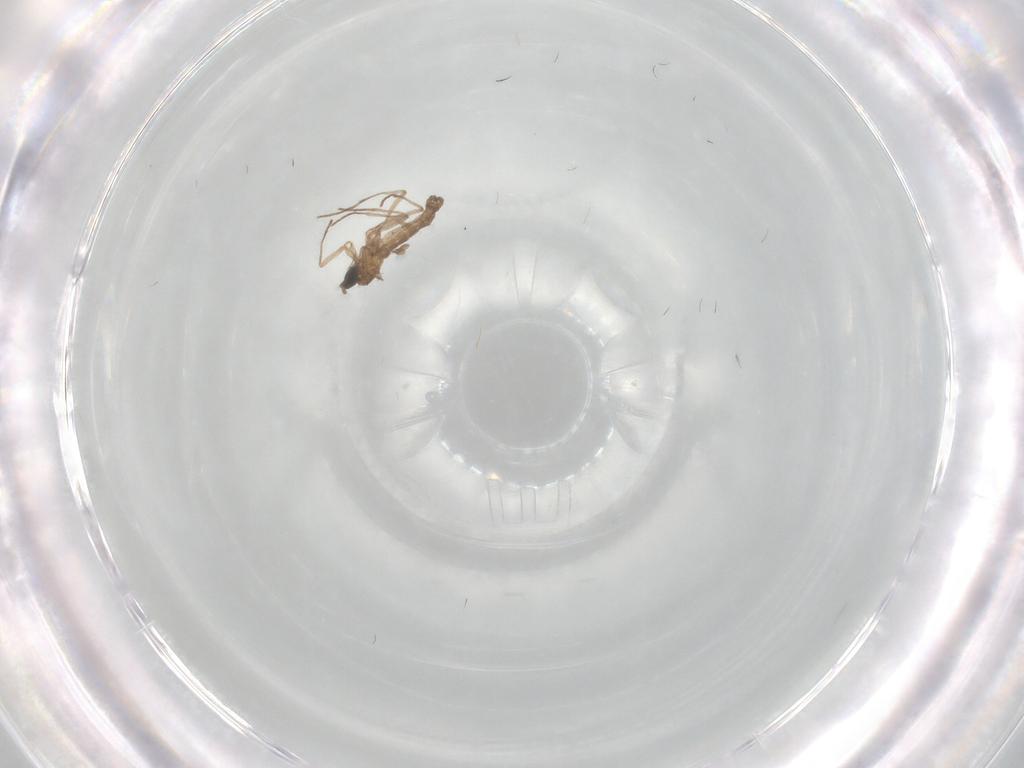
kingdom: Animalia
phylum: Arthropoda
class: Insecta
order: Diptera
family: Sciaridae
